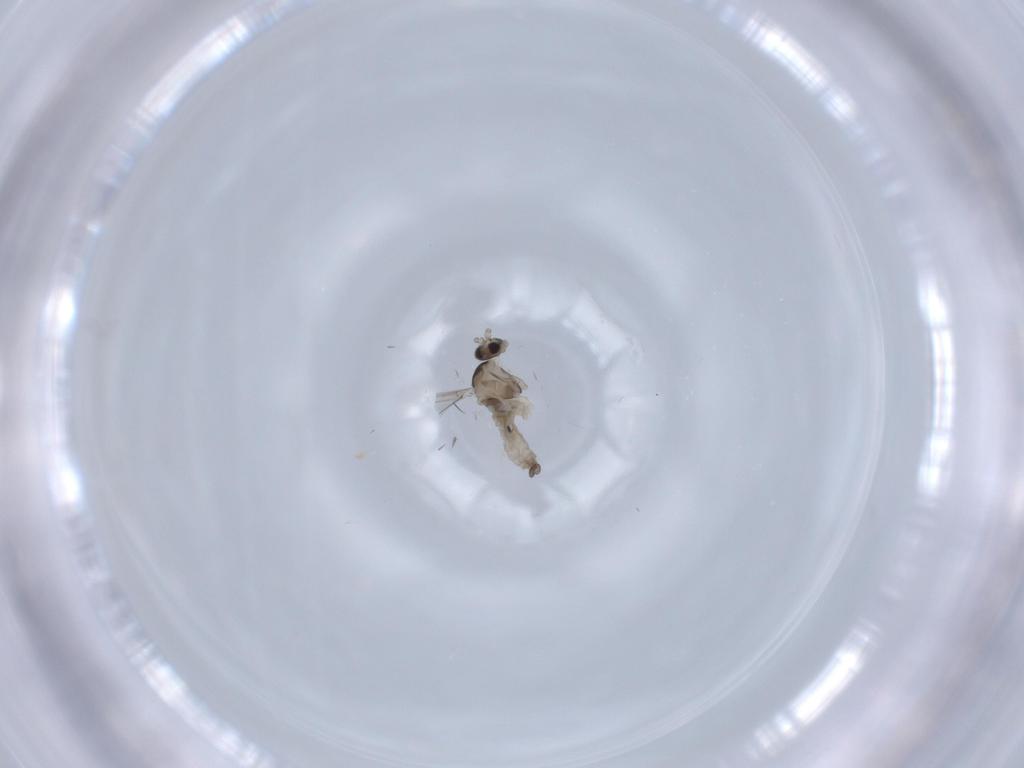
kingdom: Animalia
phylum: Arthropoda
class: Insecta
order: Diptera
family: Cecidomyiidae
